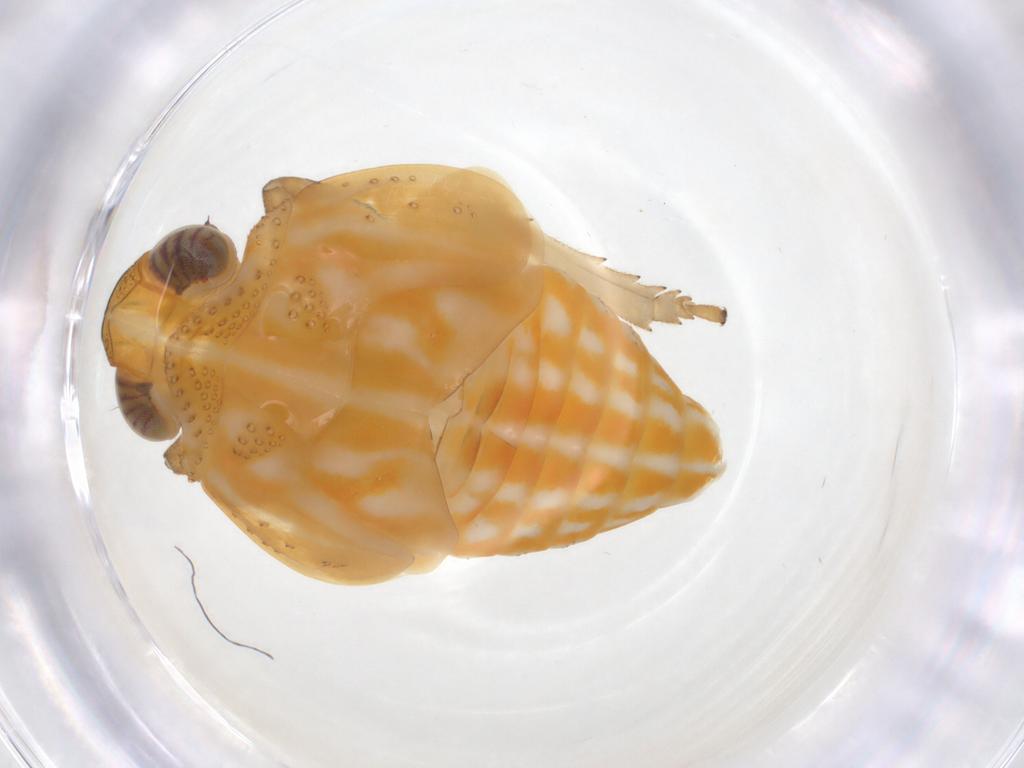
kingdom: Animalia
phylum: Arthropoda
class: Insecta
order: Hemiptera
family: Issidae
